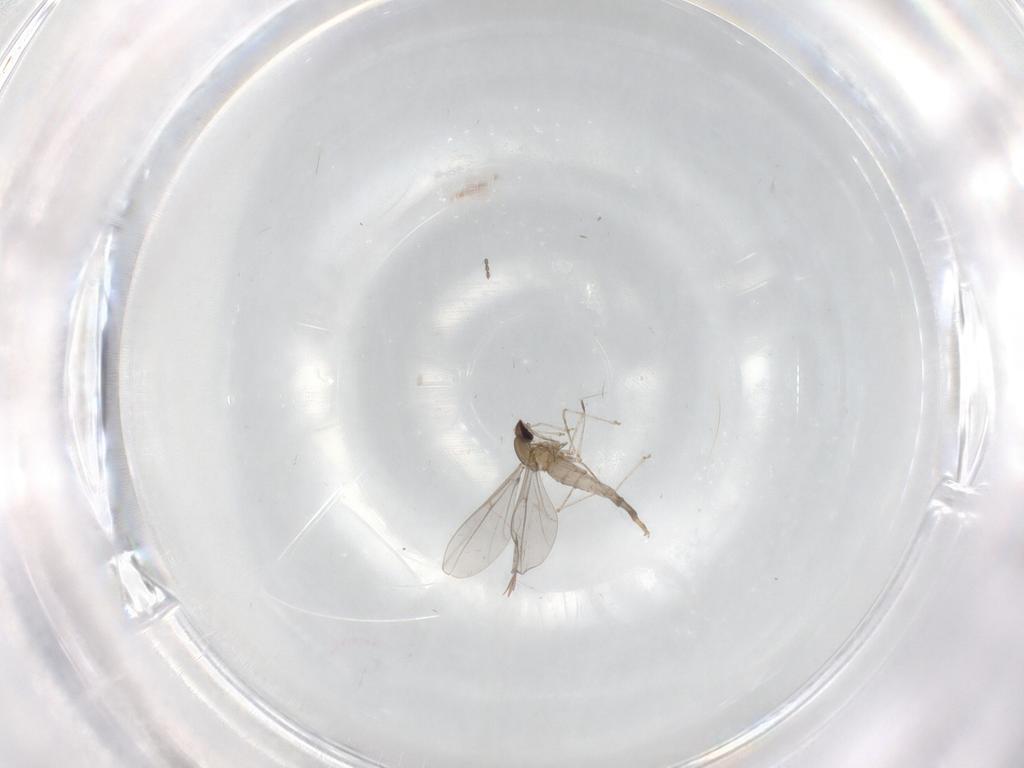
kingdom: Animalia
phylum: Arthropoda
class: Insecta
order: Diptera
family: Cecidomyiidae
